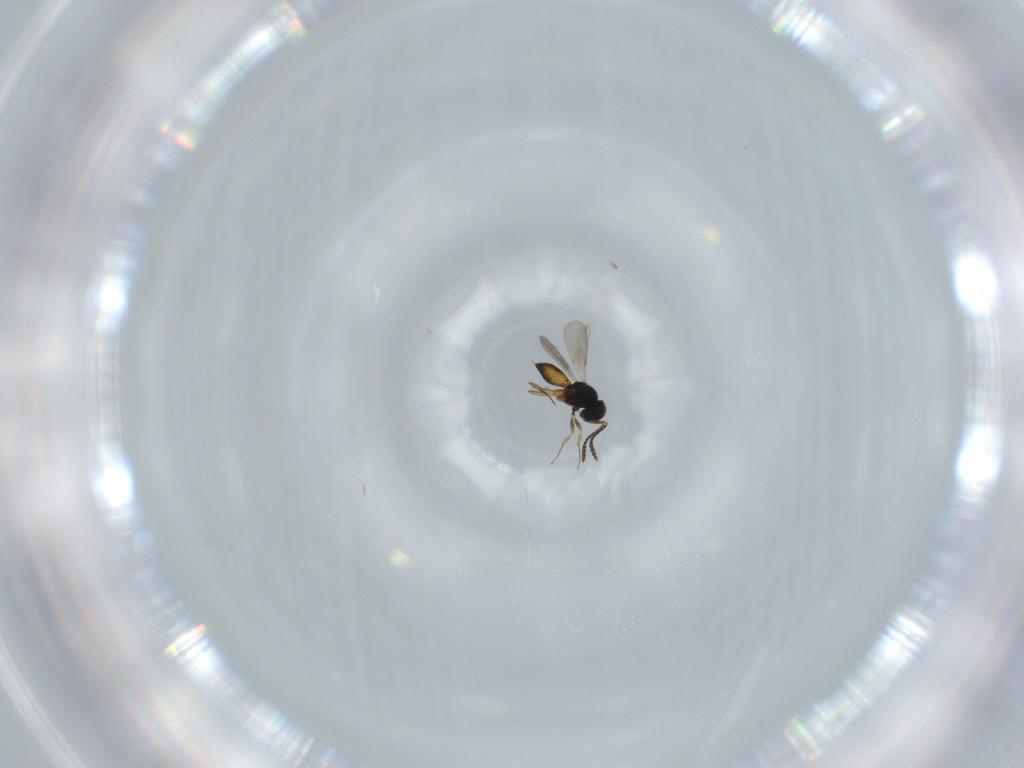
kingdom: Animalia
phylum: Arthropoda
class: Insecta
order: Hymenoptera
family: Scelionidae
